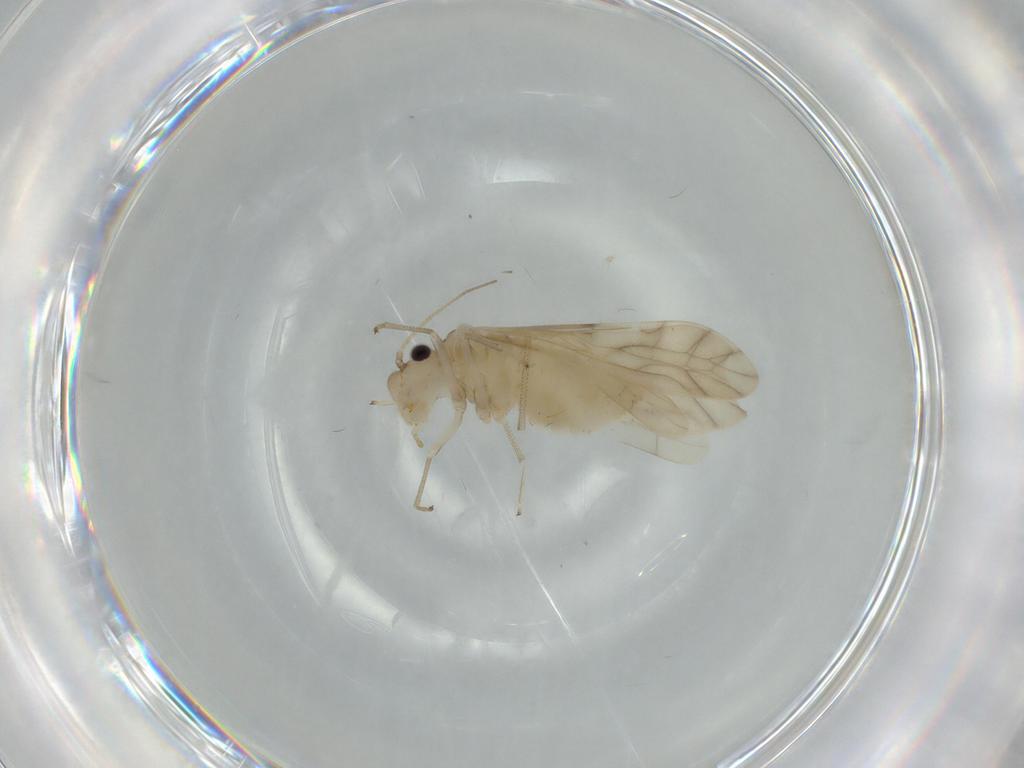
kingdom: Animalia
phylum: Arthropoda
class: Insecta
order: Psocodea
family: Caeciliusidae
